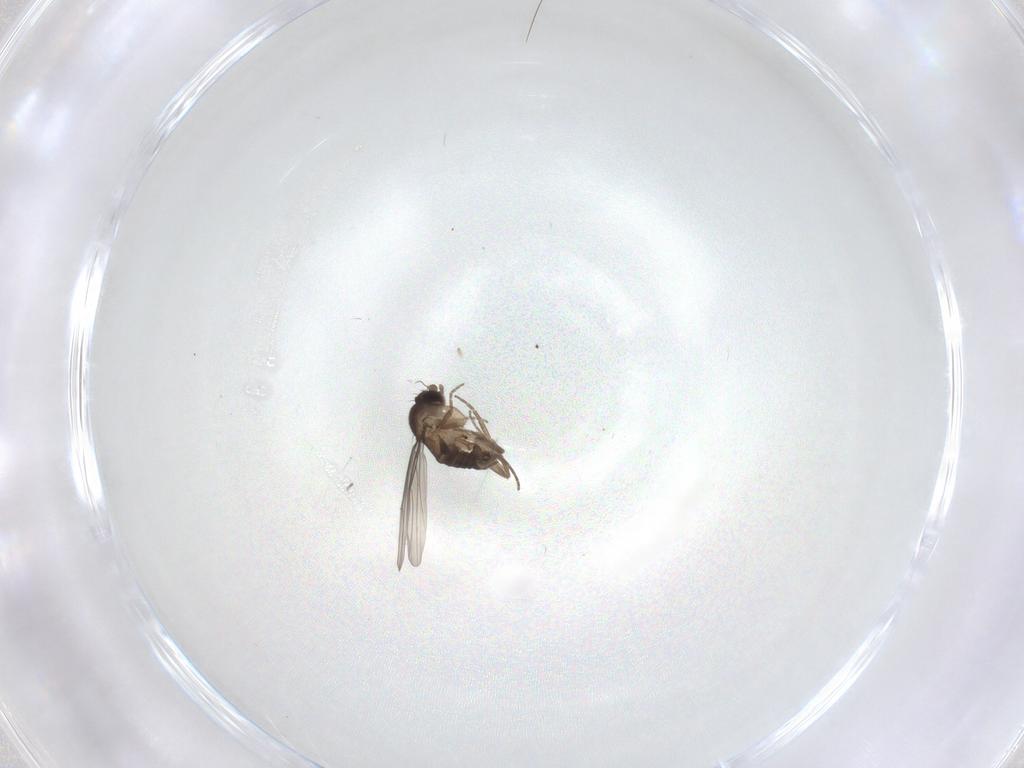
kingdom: Animalia
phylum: Arthropoda
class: Insecta
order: Diptera
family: Chironomidae
